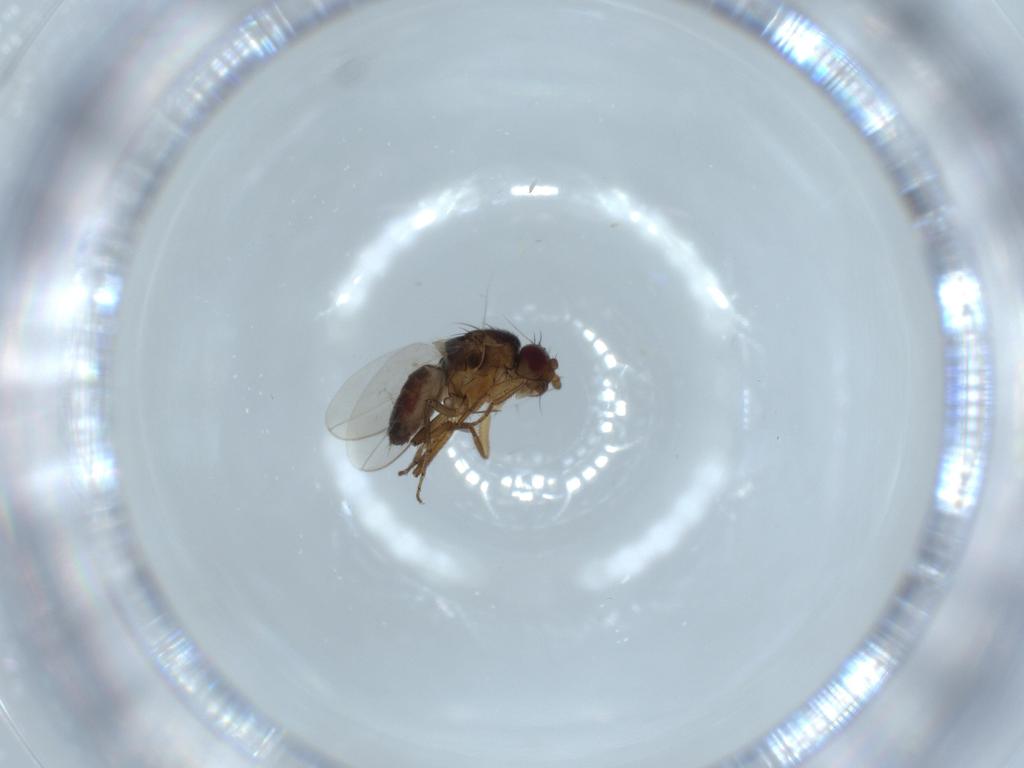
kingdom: Animalia
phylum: Arthropoda
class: Insecta
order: Diptera
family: Sphaeroceridae
